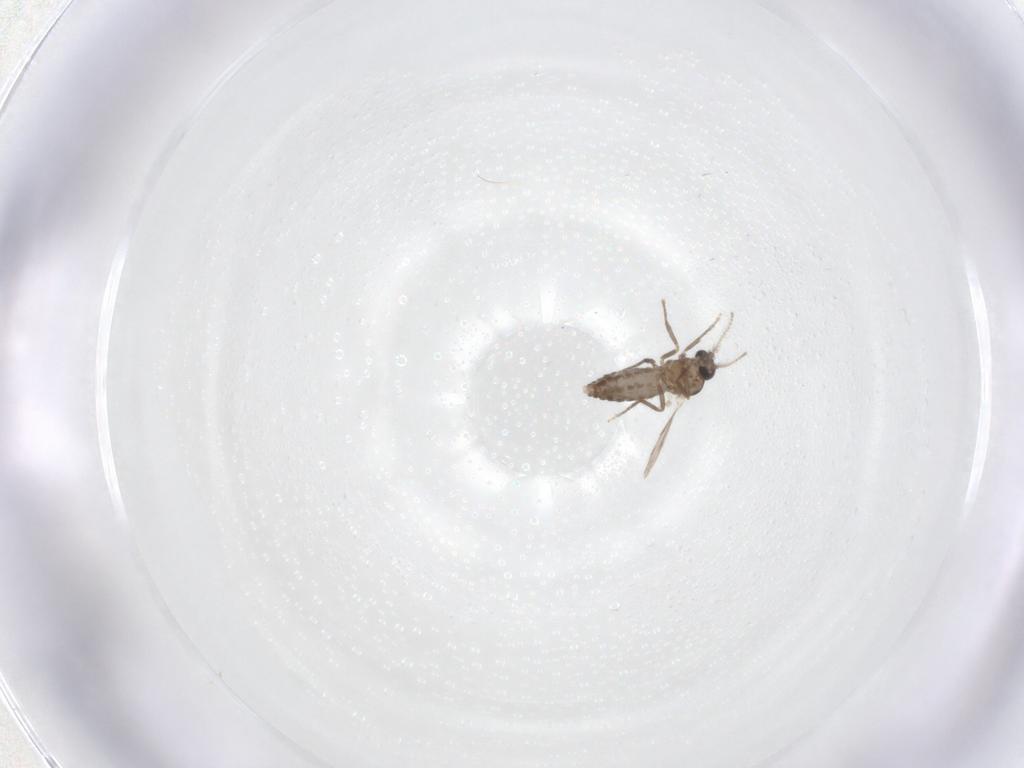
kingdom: Animalia
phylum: Arthropoda
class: Insecta
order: Diptera
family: Ceratopogonidae
